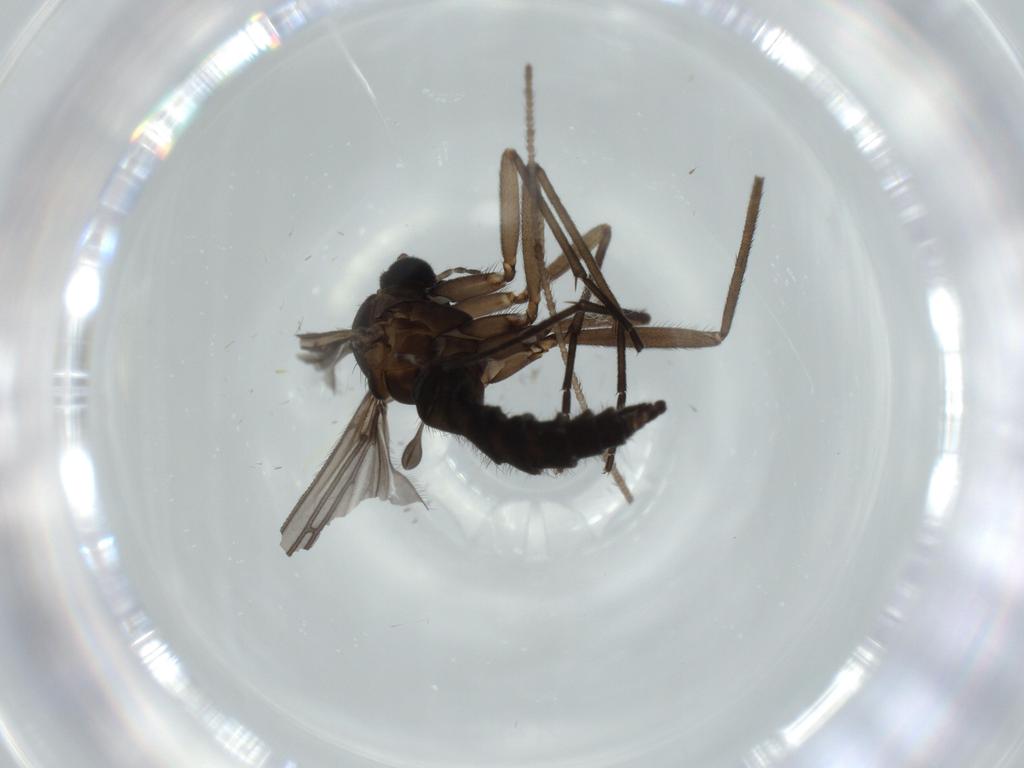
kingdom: Animalia
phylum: Arthropoda
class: Insecta
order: Diptera
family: Sciaridae
